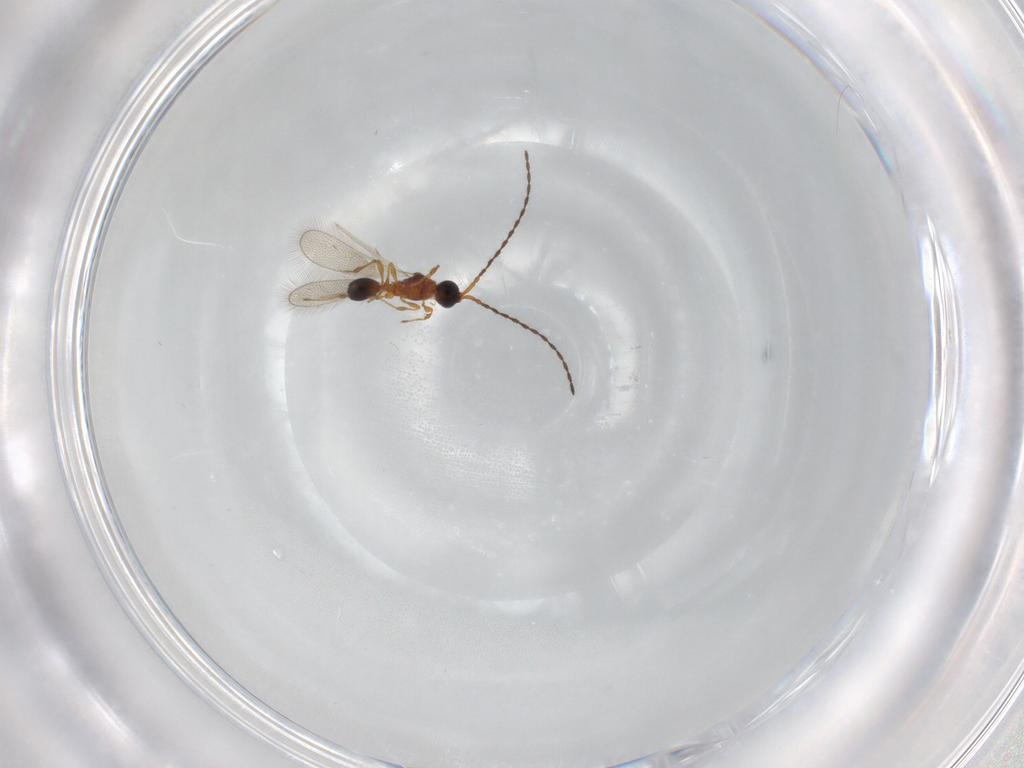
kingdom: Animalia
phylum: Arthropoda
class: Insecta
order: Hymenoptera
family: Diapriidae
